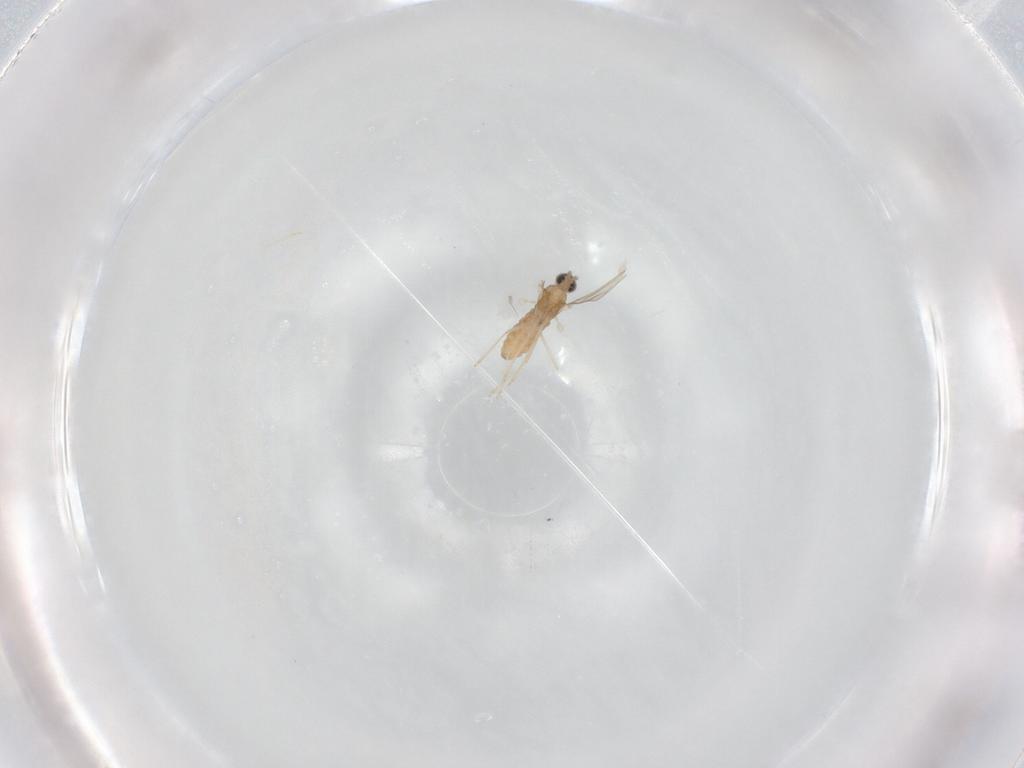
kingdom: Animalia
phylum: Arthropoda
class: Insecta
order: Diptera
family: Cecidomyiidae
